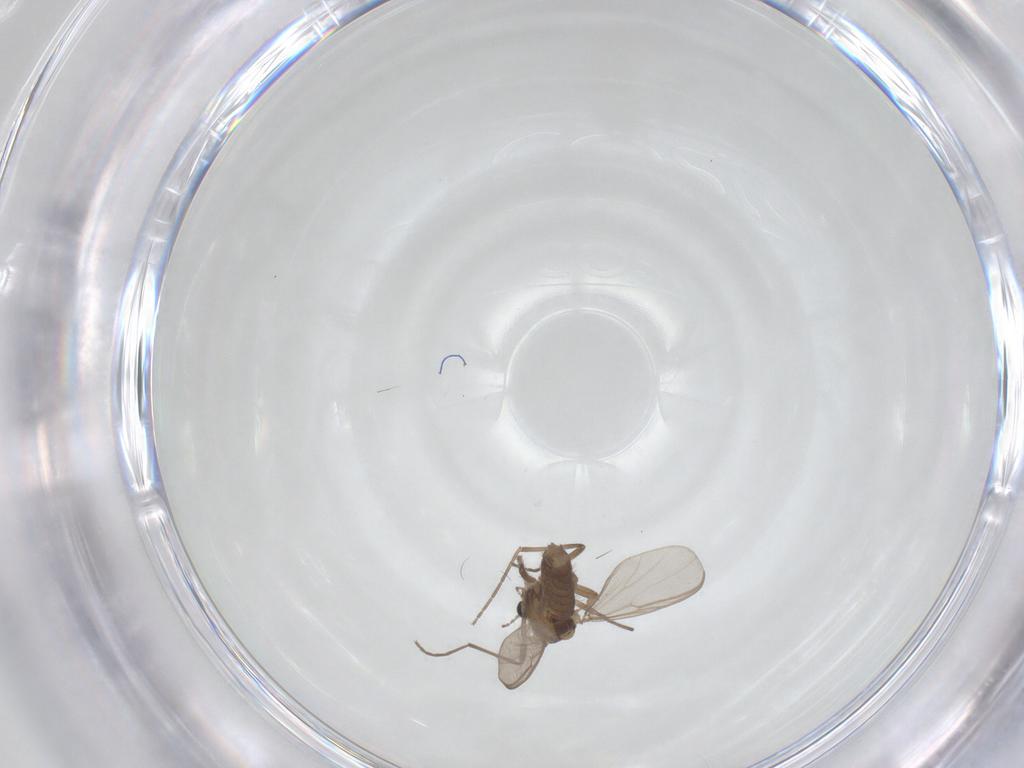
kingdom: Animalia
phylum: Arthropoda
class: Insecta
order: Diptera
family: Chironomidae
